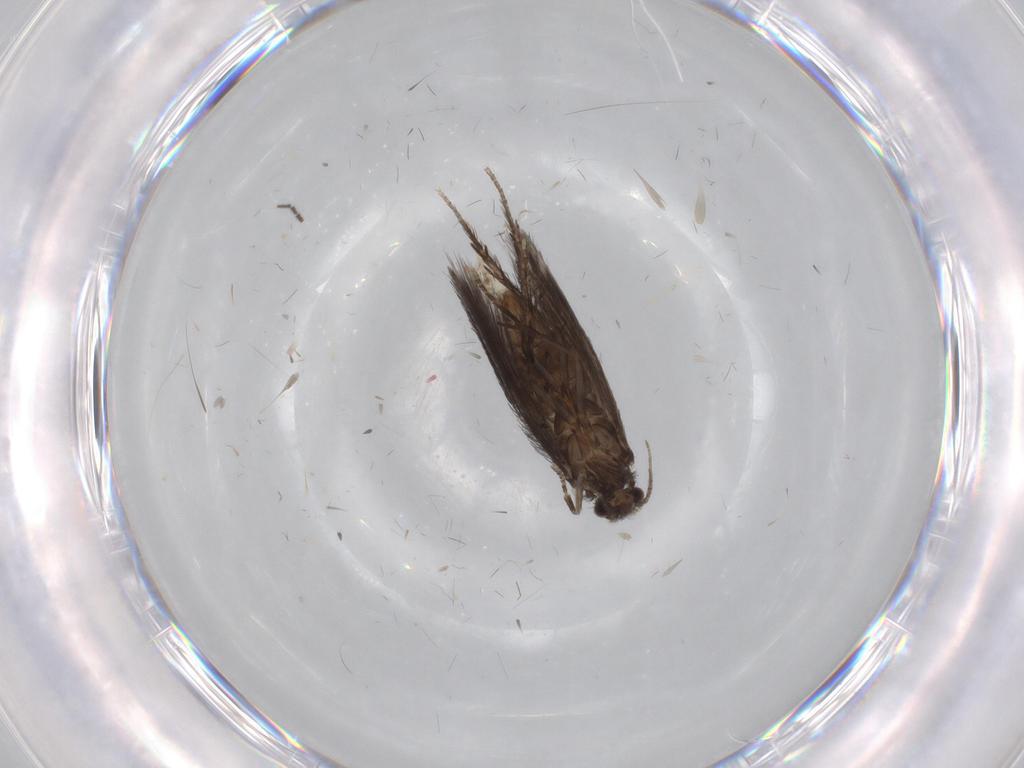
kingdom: Animalia
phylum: Arthropoda
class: Insecta
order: Trichoptera
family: Hydroptilidae
